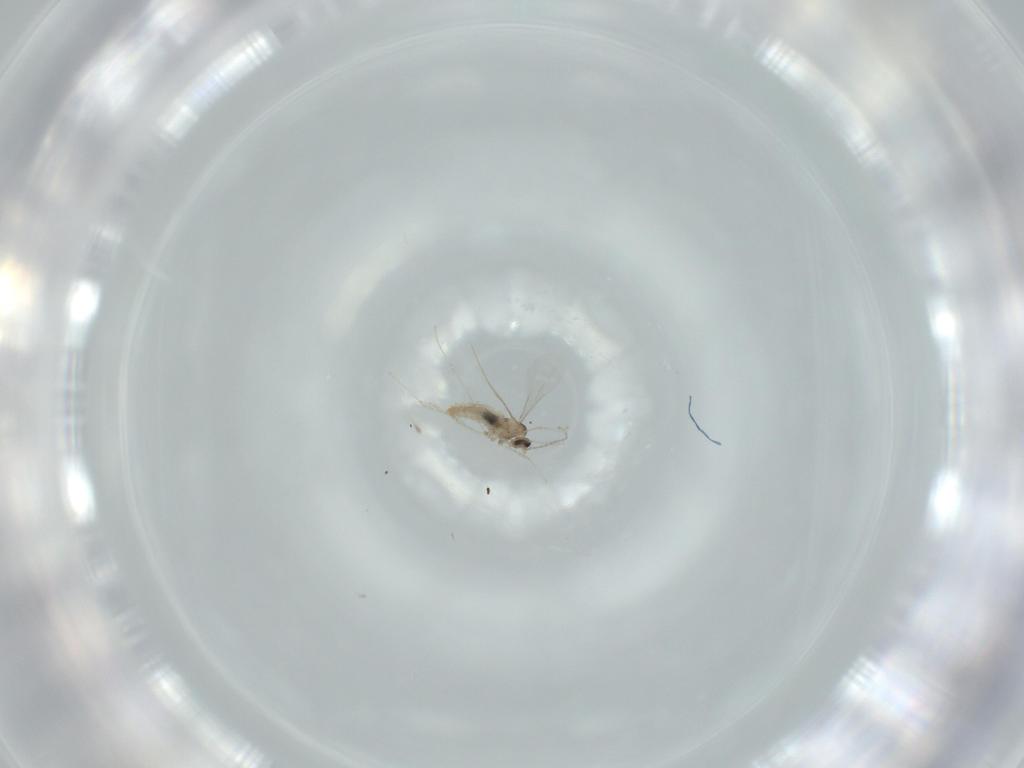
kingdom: Animalia
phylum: Arthropoda
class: Insecta
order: Diptera
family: Cecidomyiidae
